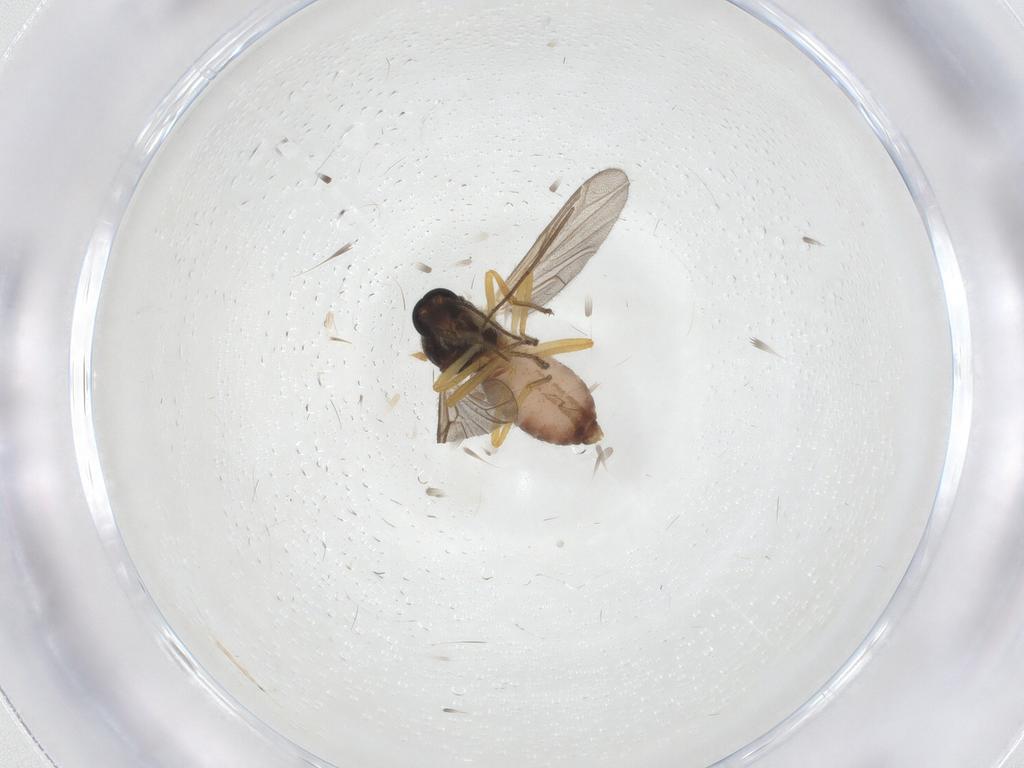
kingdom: Animalia
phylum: Arthropoda
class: Insecta
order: Diptera
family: Ceratopogonidae
